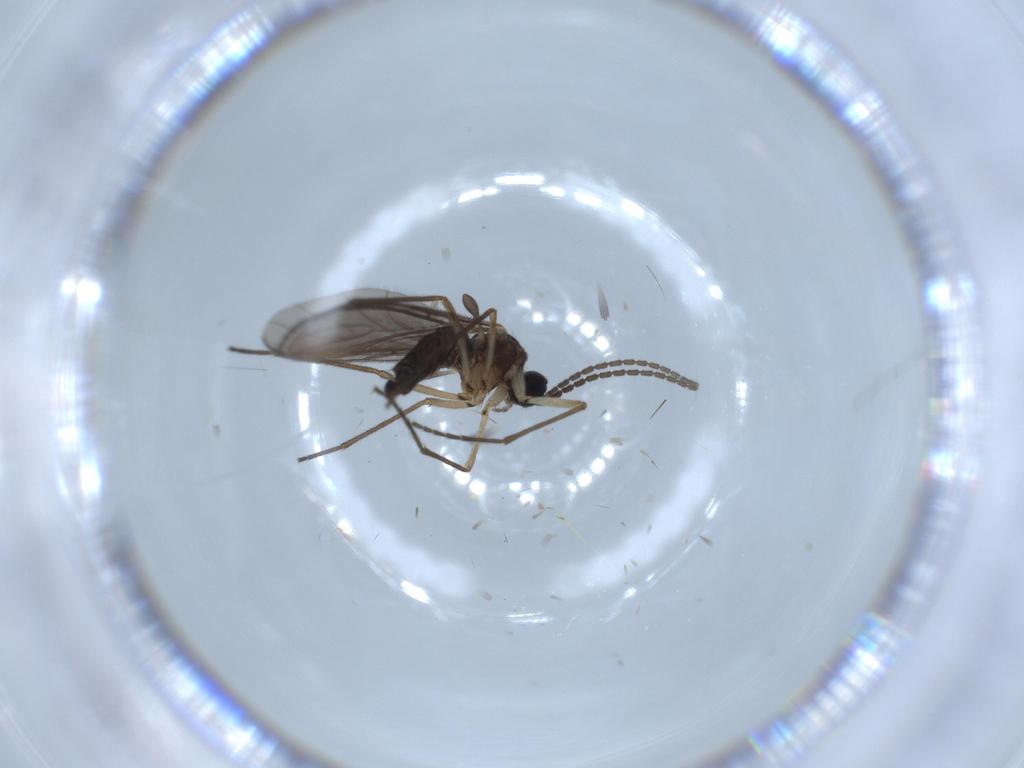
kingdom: Animalia
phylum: Arthropoda
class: Insecta
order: Diptera
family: Sciaridae
